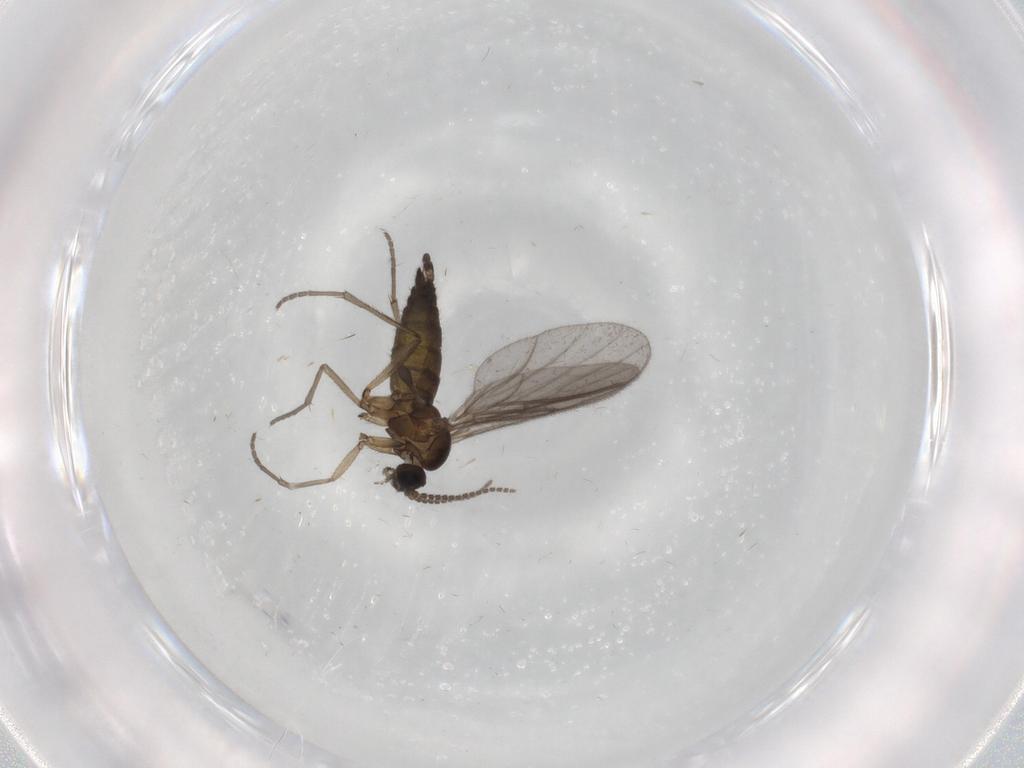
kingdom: Animalia
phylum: Arthropoda
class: Insecta
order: Diptera
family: Sciaridae
